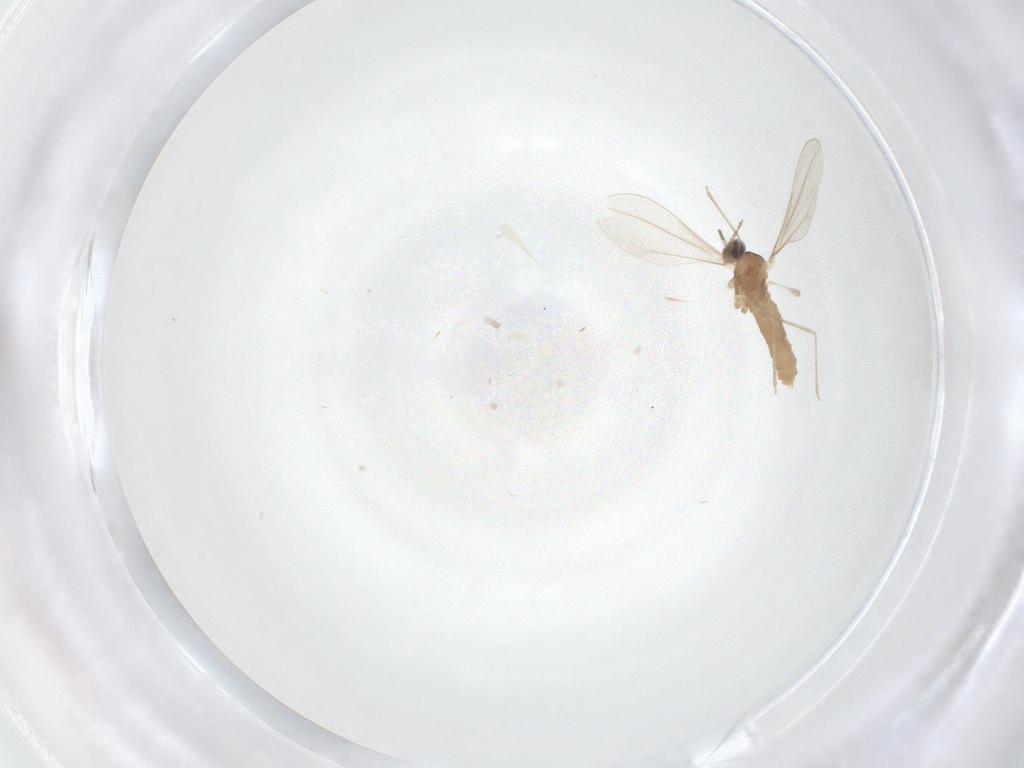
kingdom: Animalia
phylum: Arthropoda
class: Insecta
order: Diptera
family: Cecidomyiidae
